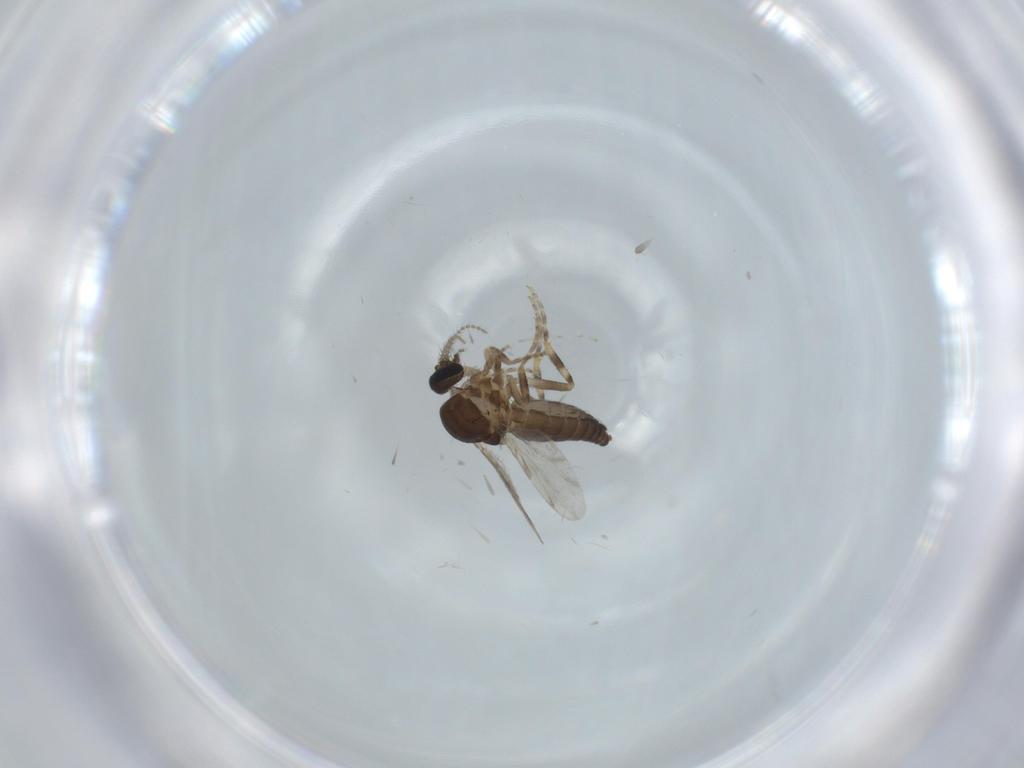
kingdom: Animalia
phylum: Arthropoda
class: Insecta
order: Diptera
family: Ceratopogonidae
